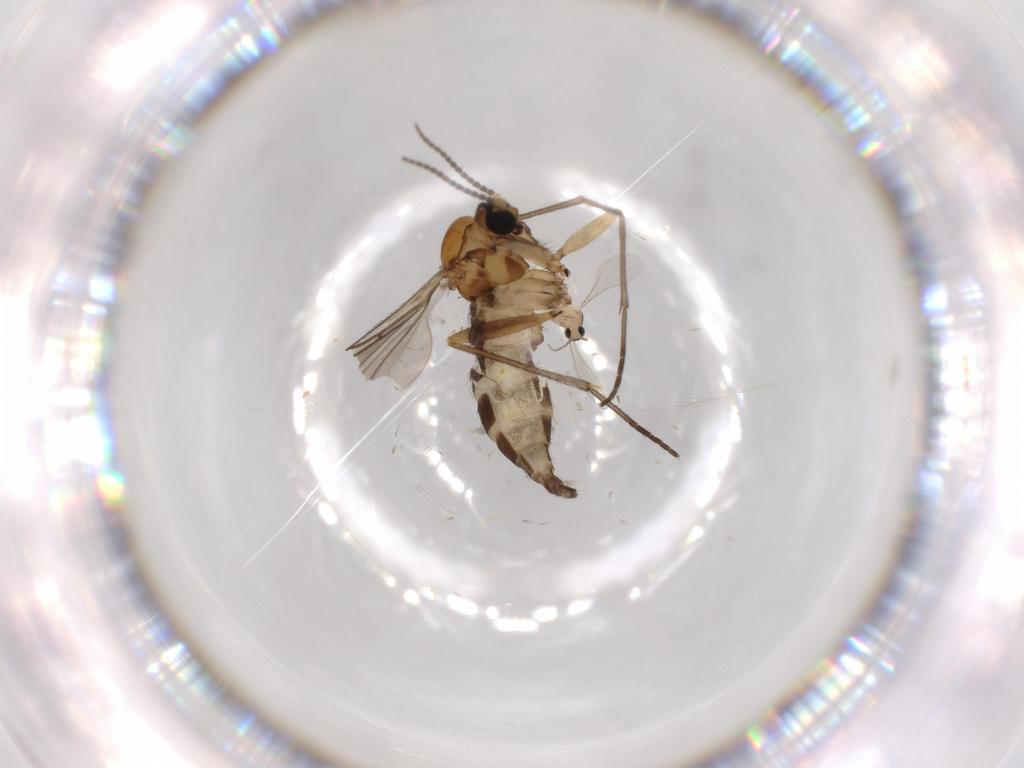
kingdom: Animalia
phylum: Arthropoda
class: Insecta
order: Diptera
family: Sciaridae
